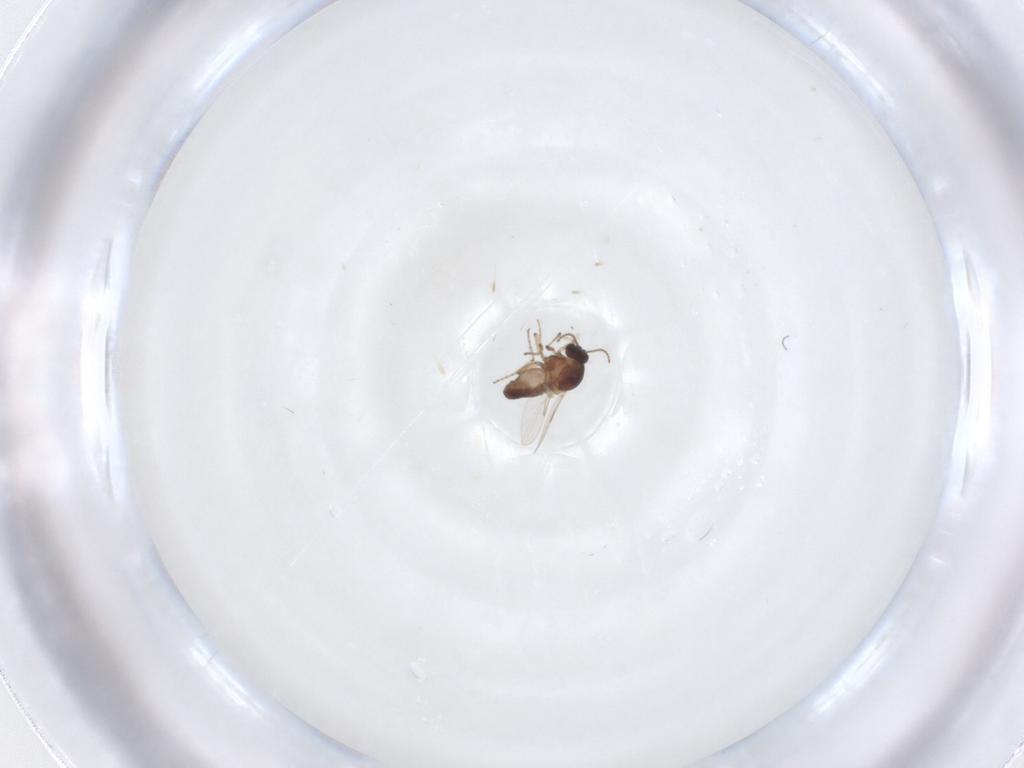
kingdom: Animalia
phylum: Arthropoda
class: Insecta
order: Diptera
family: Ceratopogonidae
